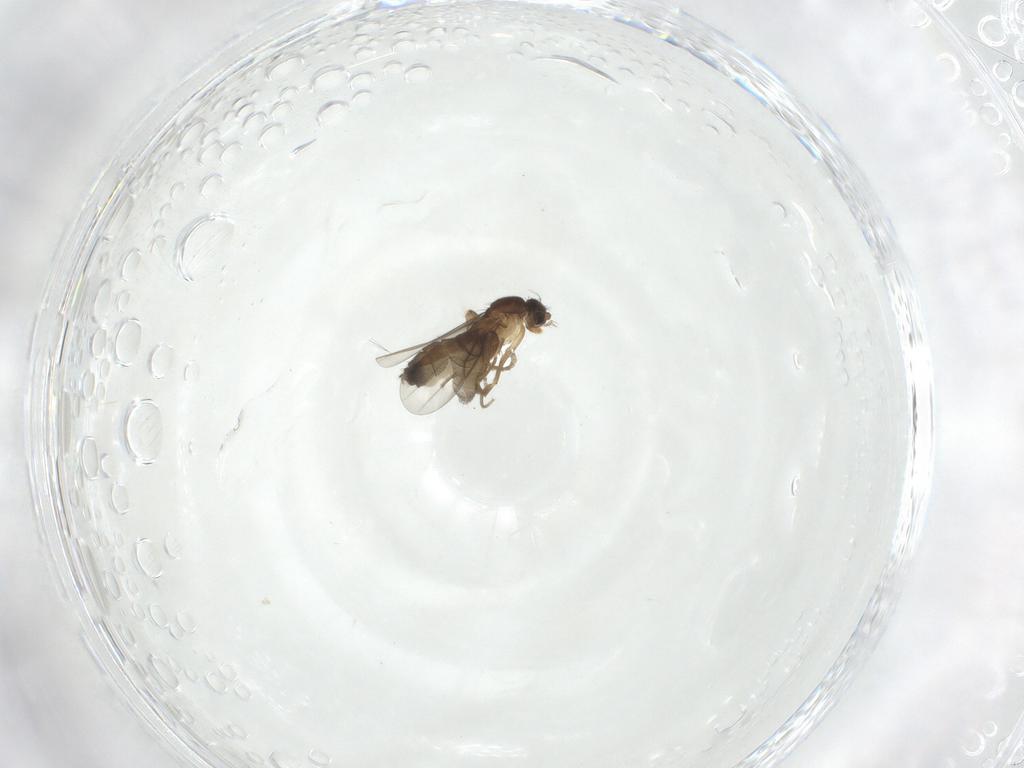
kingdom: Animalia
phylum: Arthropoda
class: Insecta
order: Diptera
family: Phoridae
